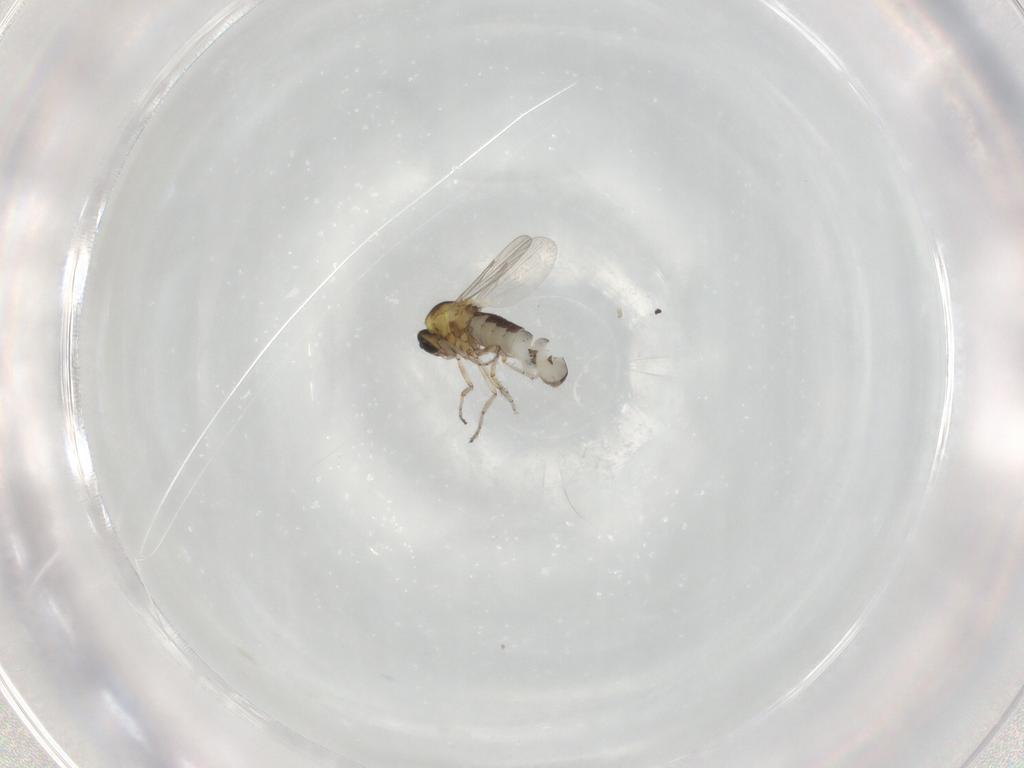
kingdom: Animalia
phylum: Arthropoda
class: Insecta
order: Diptera
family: Ceratopogonidae
